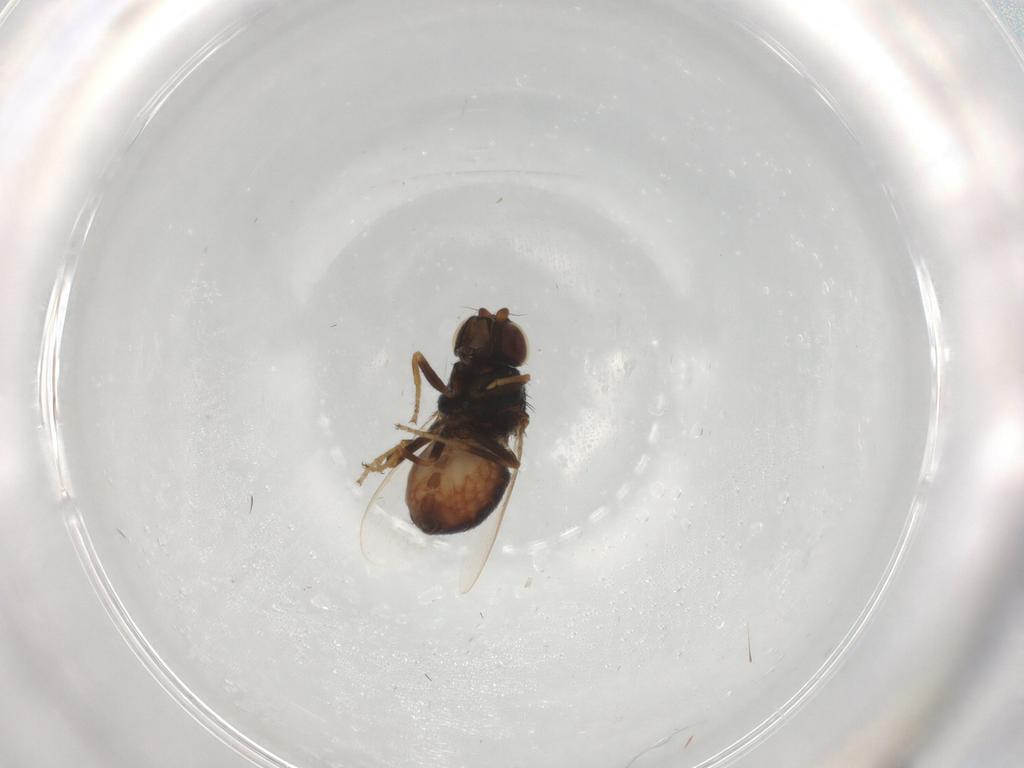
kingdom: Animalia
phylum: Arthropoda
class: Insecta
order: Diptera
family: Chloropidae
